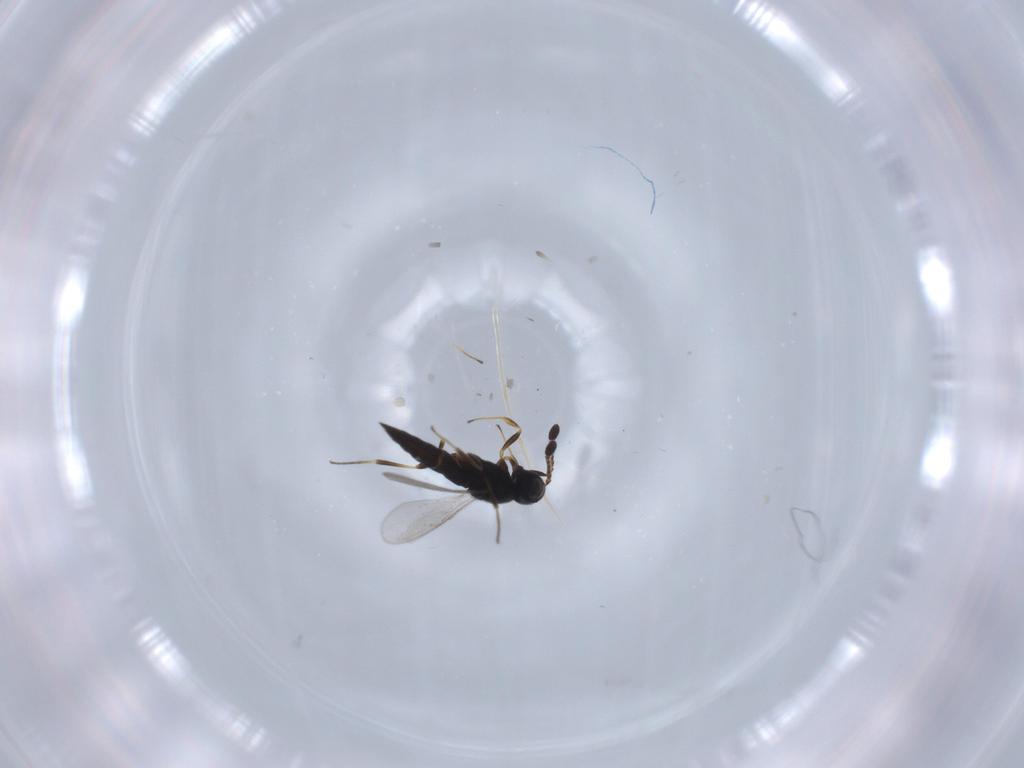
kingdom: Animalia
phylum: Arthropoda
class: Insecta
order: Hymenoptera
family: Scelionidae
